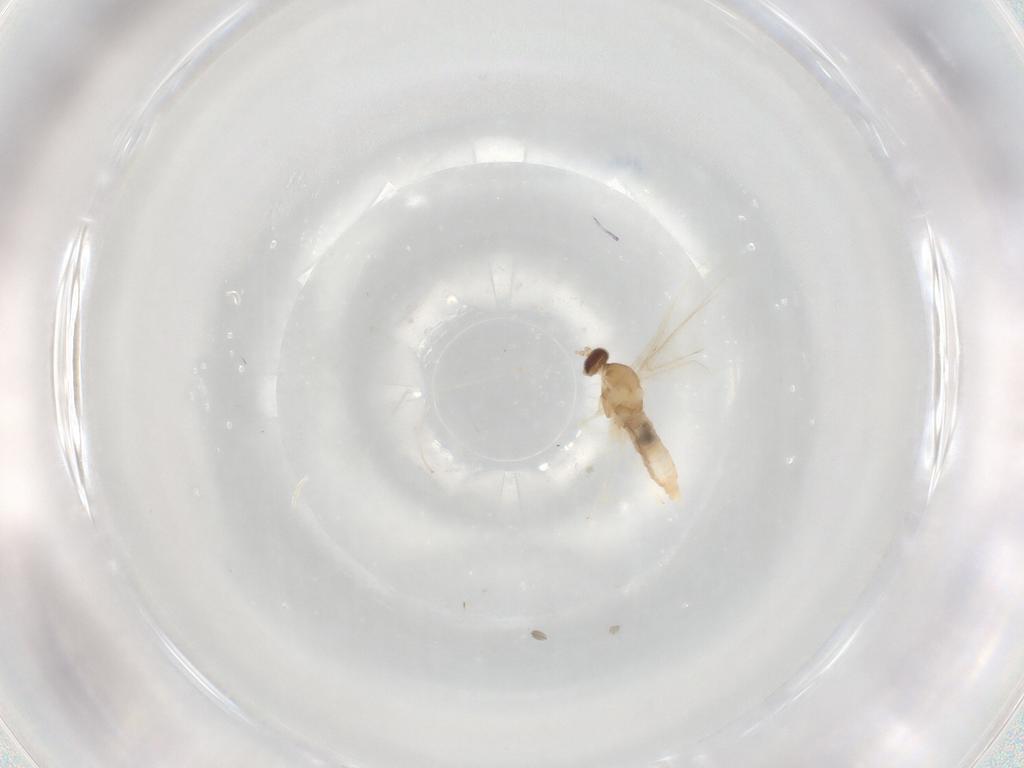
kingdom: Animalia
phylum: Arthropoda
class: Insecta
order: Diptera
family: Cecidomyiidae
